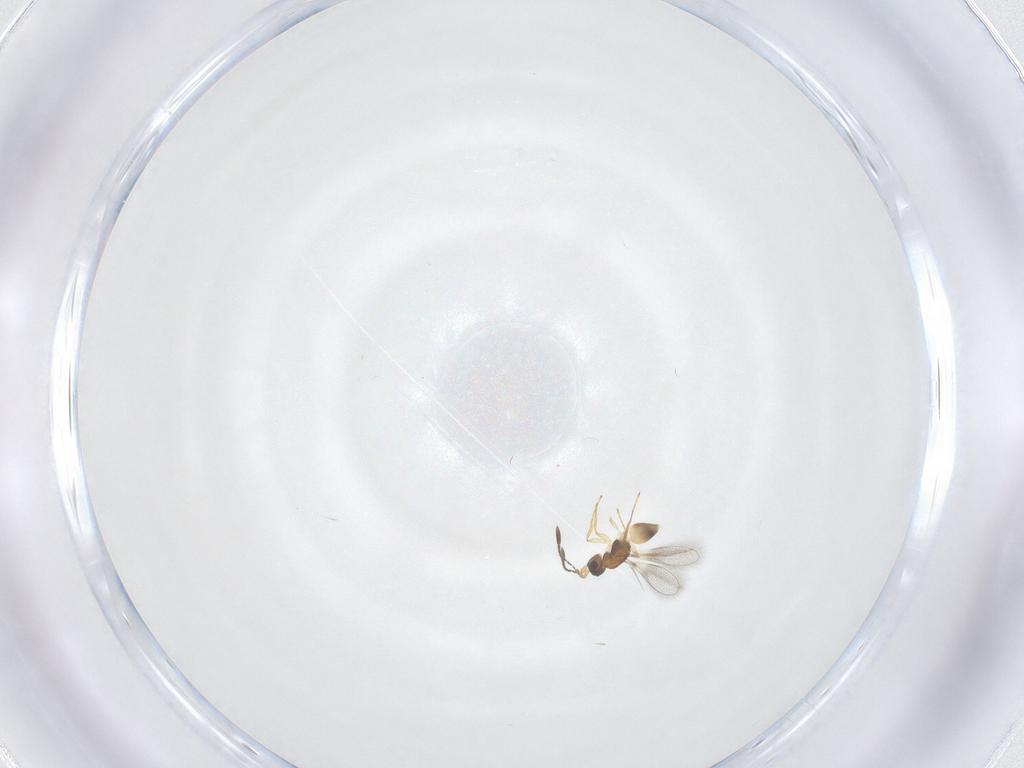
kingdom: Animalia
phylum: Arthropoda
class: Insecta
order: Hymenoptera
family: Mymaridae
